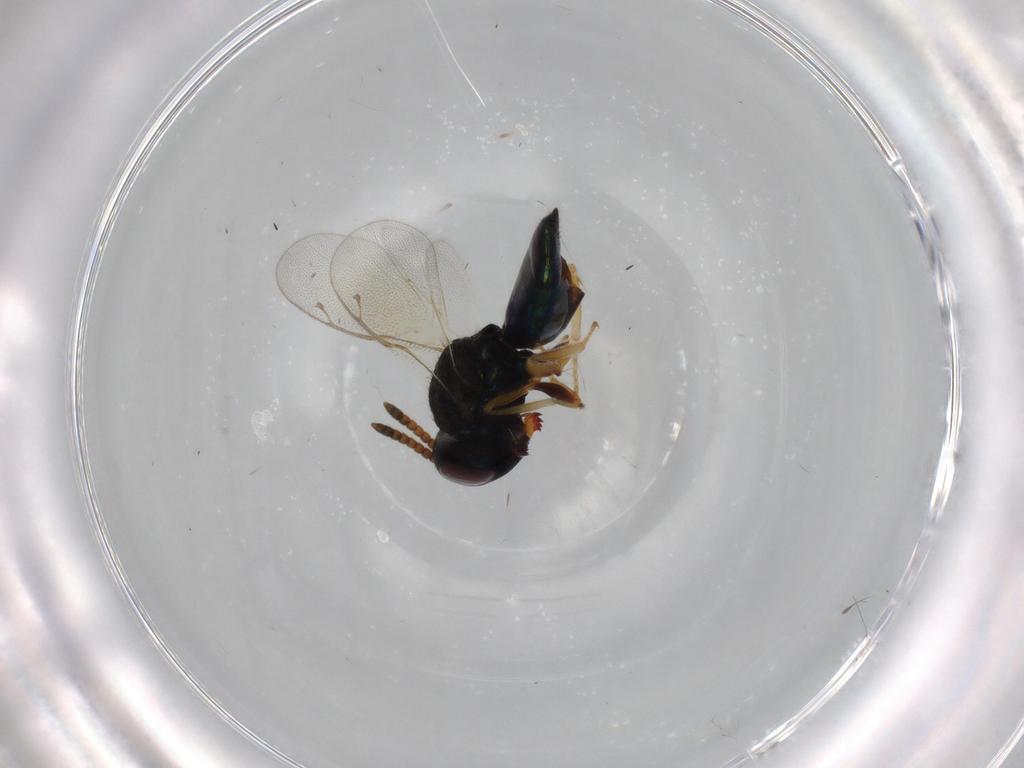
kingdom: Animalia
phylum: Arthropoda
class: Insecta
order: Hymenoptera
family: Pteromalidae
